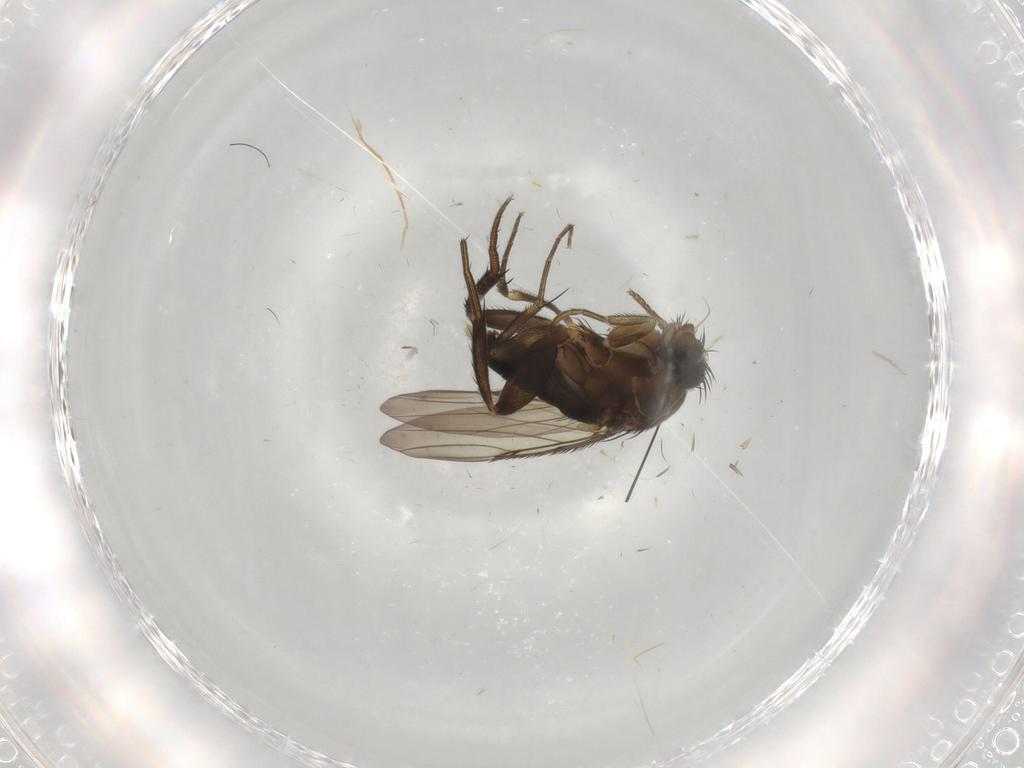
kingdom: Animalia
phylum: Arthropoda
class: Insecta
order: Diptera
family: Phoridae
